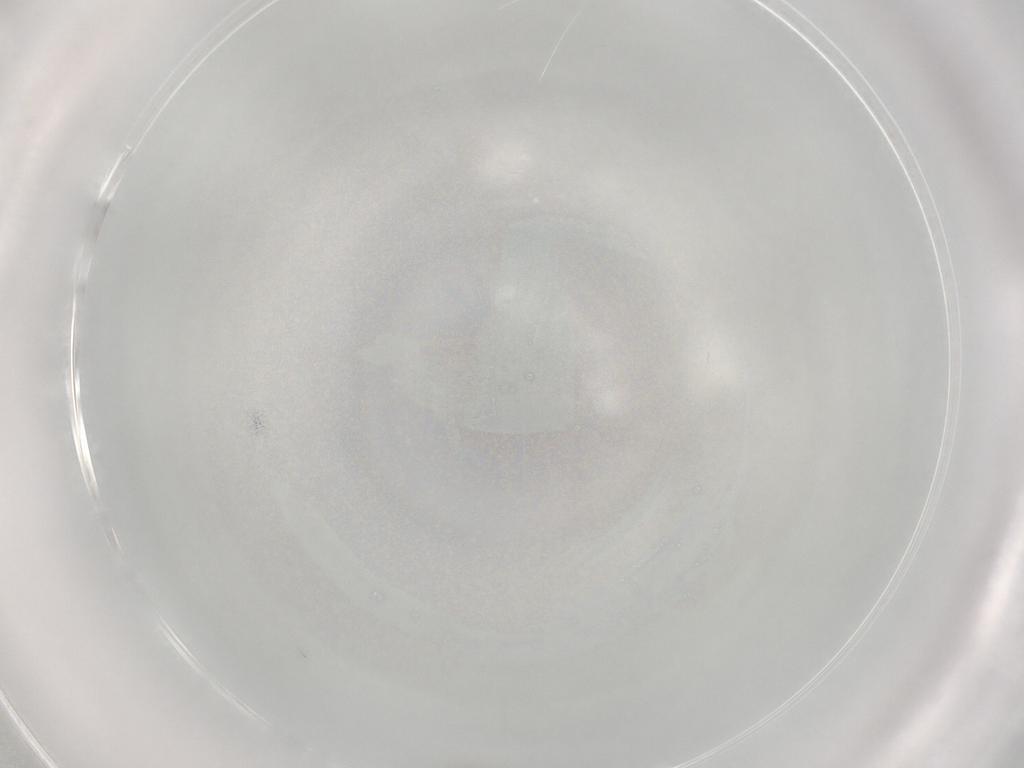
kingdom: Animalia
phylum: Arthropoda
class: Insecta
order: Diptera
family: Cecidomyiidae
